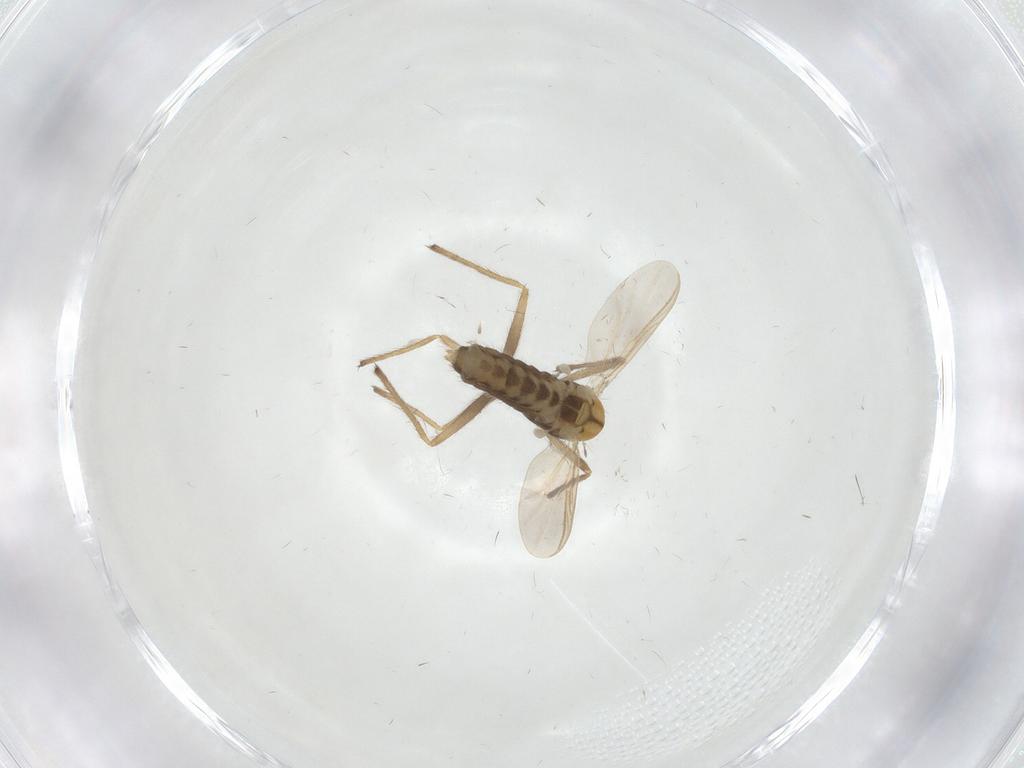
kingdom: Animalia
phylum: Arthropoda
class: Insecta
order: Diptera
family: Chironomidae
